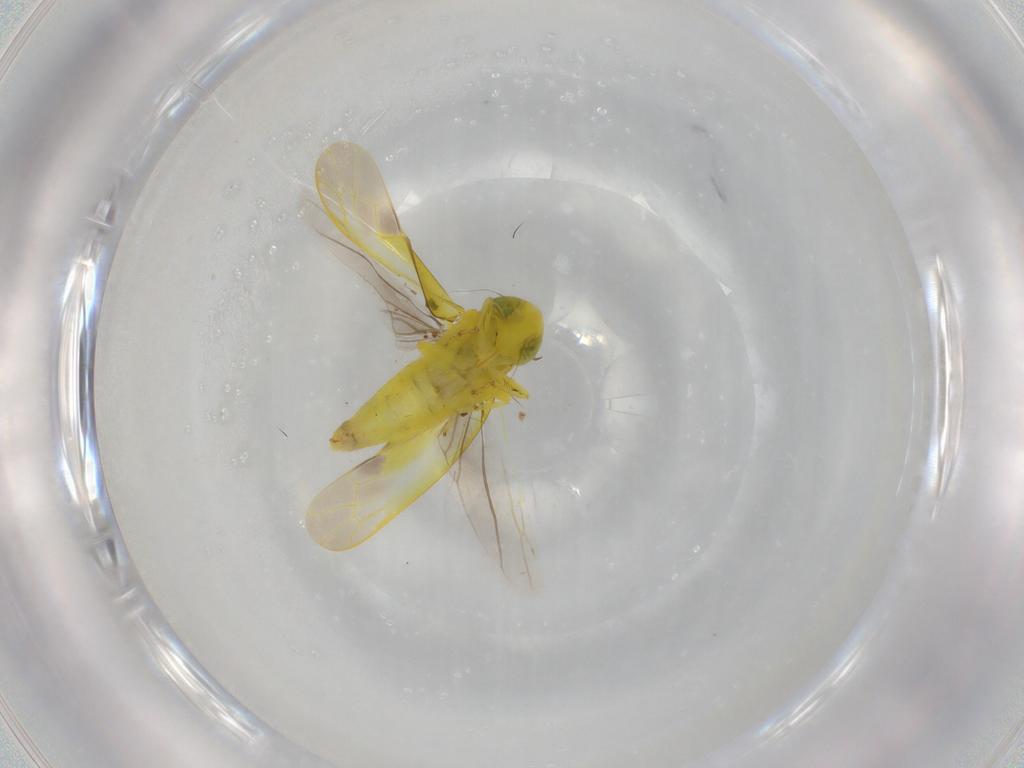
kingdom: Animalia
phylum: Arthropoda
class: Insecta
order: Hemiptera
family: Cicadellidae
